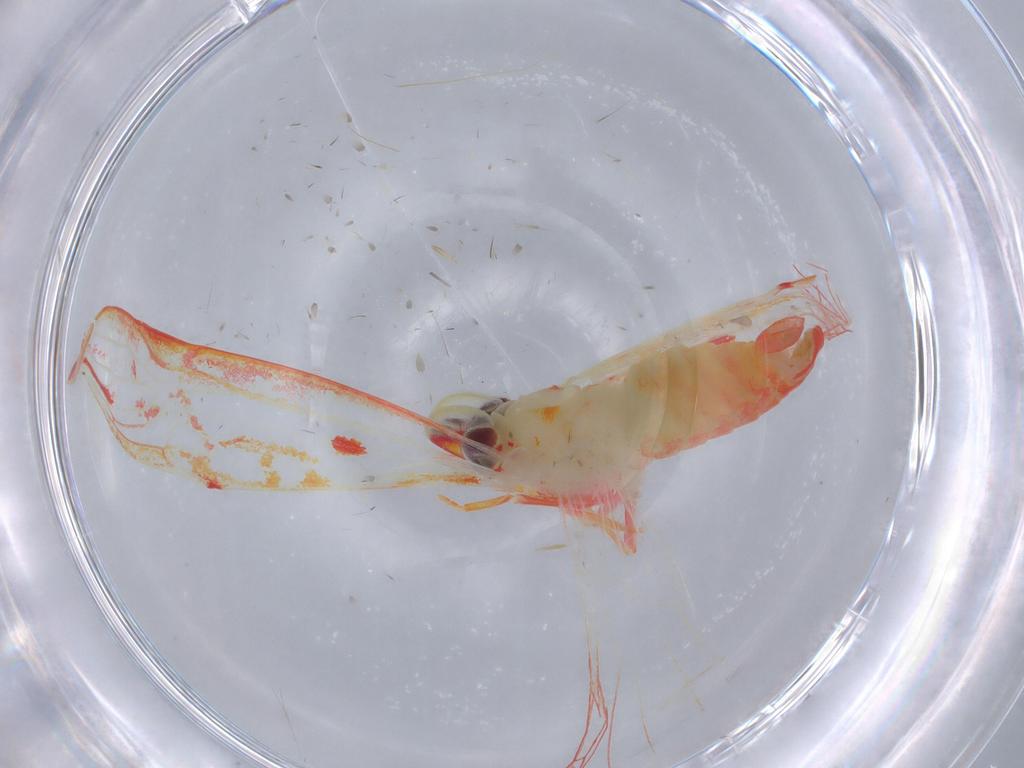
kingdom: Animalia
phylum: Arthropoda
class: Insecta
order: Hemiptera
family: Derbidae
